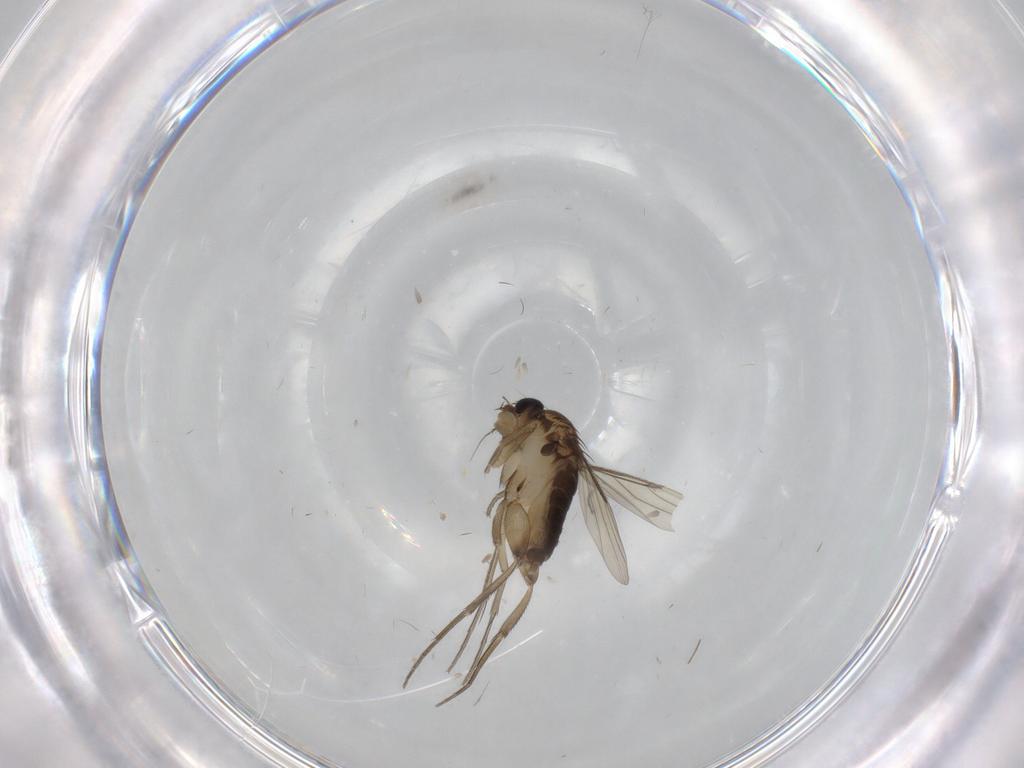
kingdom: Animalia
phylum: Arthropoda
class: Insecta
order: Diptera
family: Phoridae
